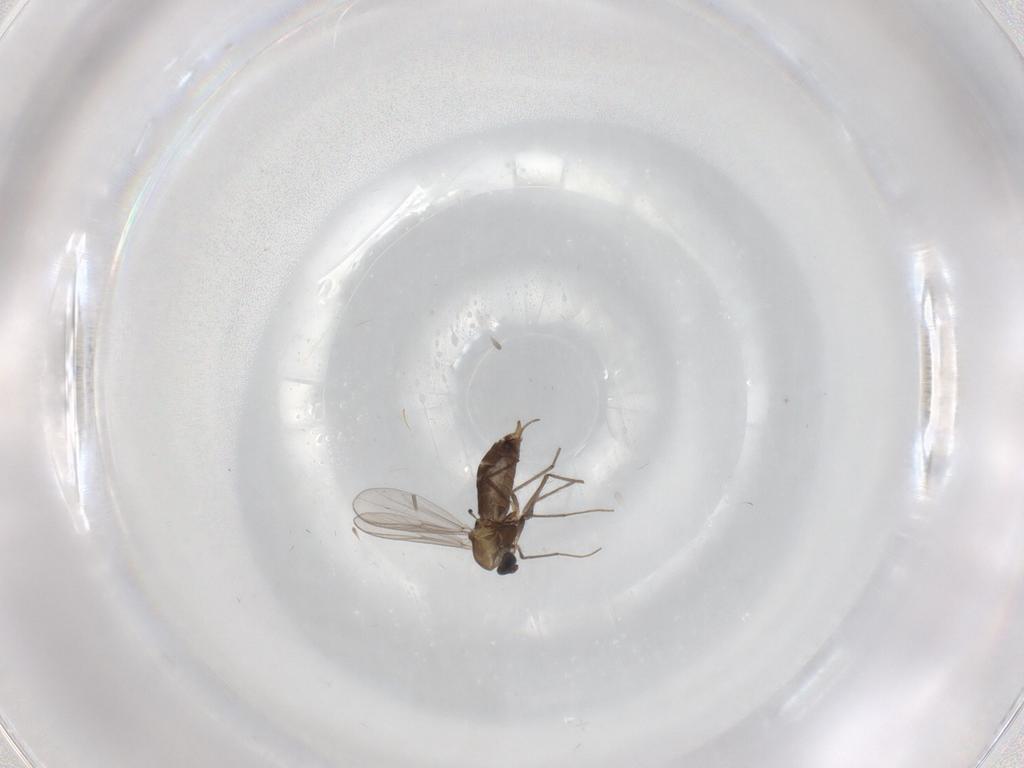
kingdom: Animalia
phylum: Arthropoda
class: Insecta
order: Diptera
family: Chironomidae
